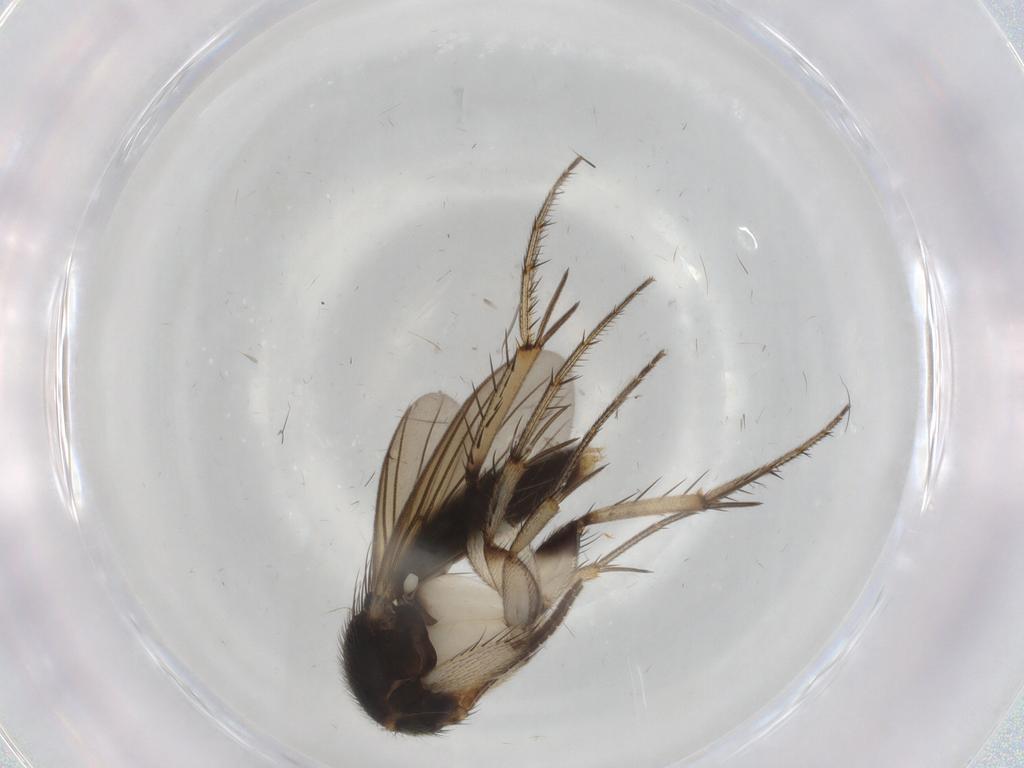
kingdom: Animalia
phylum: Arthropoda
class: Insecta
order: Diptera
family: Phoridae
